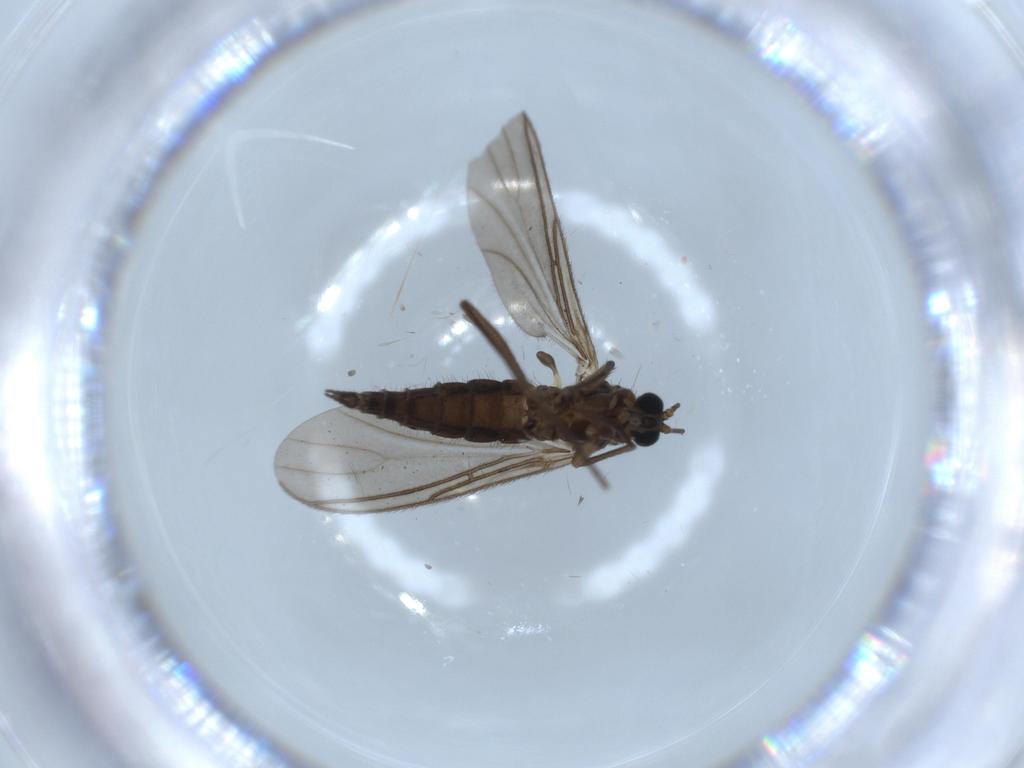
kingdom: Animalia
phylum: Arthropoda
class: Insecta
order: Diptera
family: Sciaridae
